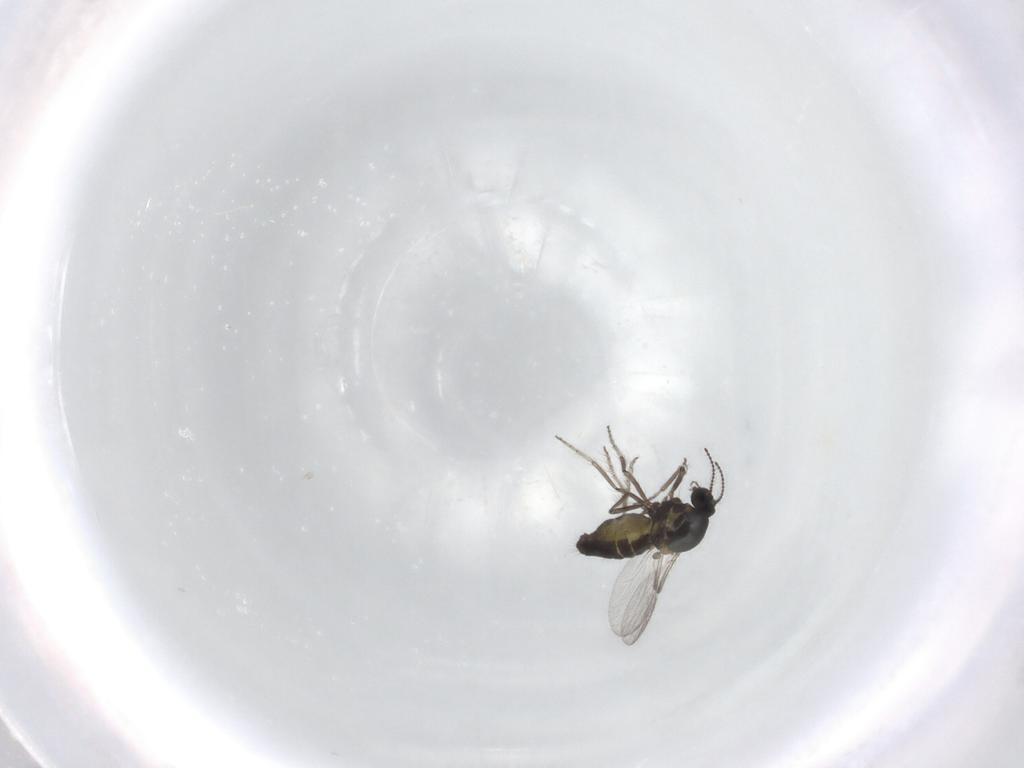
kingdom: Animalia
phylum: Arthropoda
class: Insecta
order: Diptera
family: Ceratopogonidae
